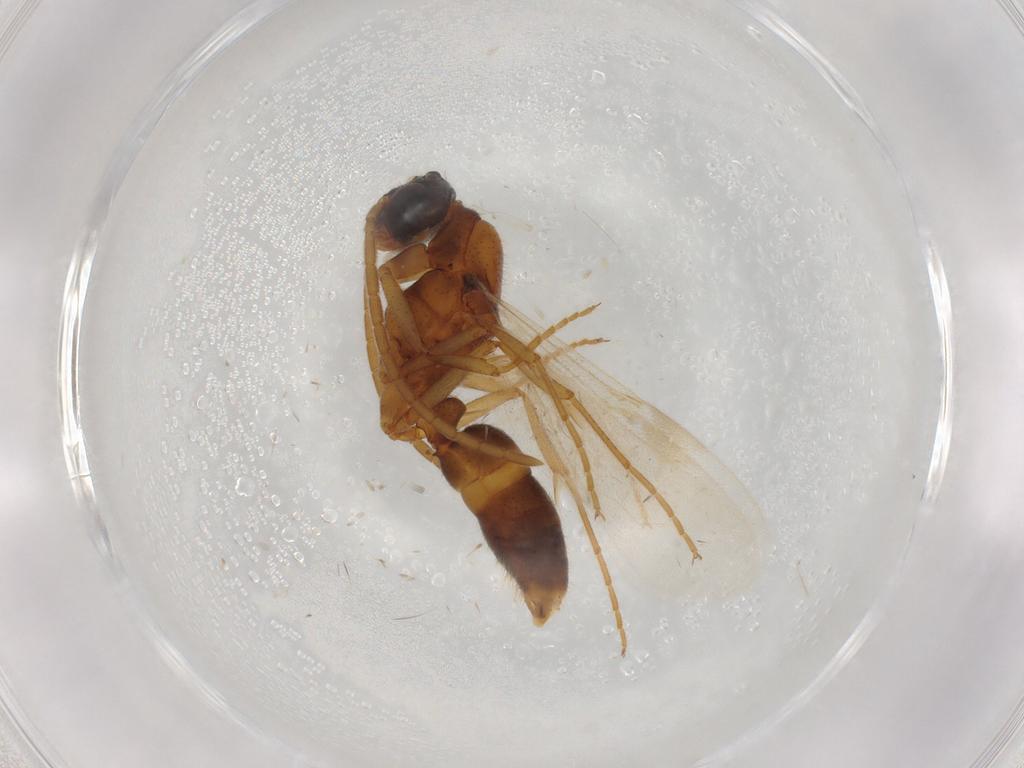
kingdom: Animalia
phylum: Arthropoda
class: Insecta
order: Hymenoptera
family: Formicidae
